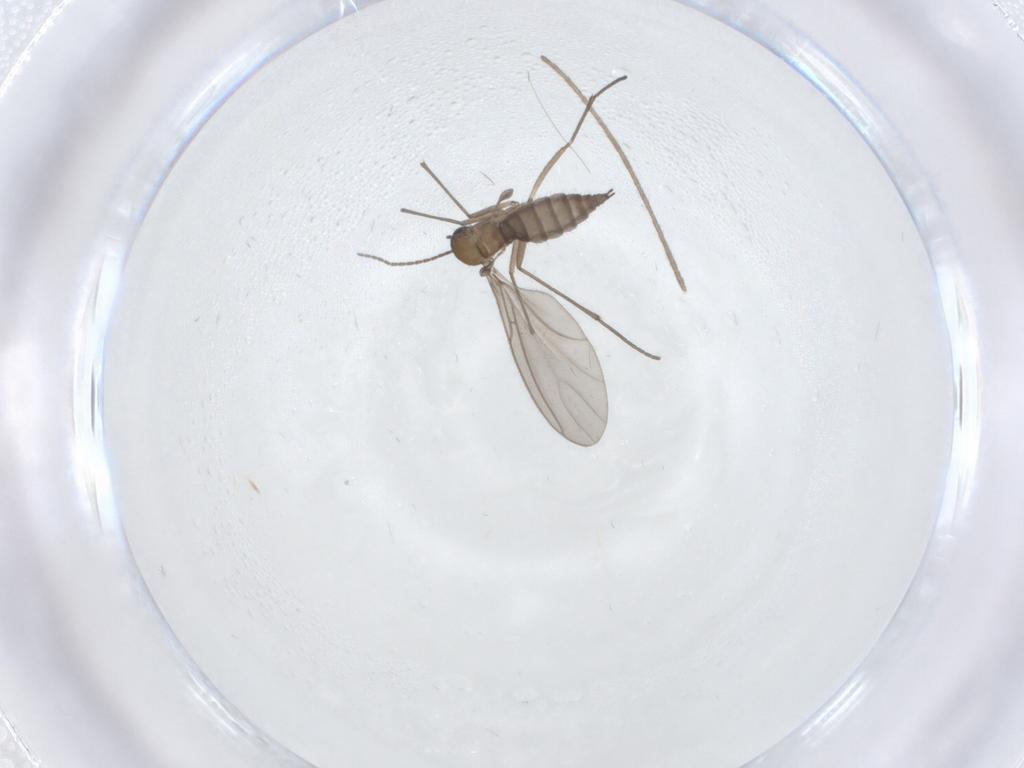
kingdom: Animalia
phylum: Arthropoda
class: Insecta
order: Diptera
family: Sciaridae
